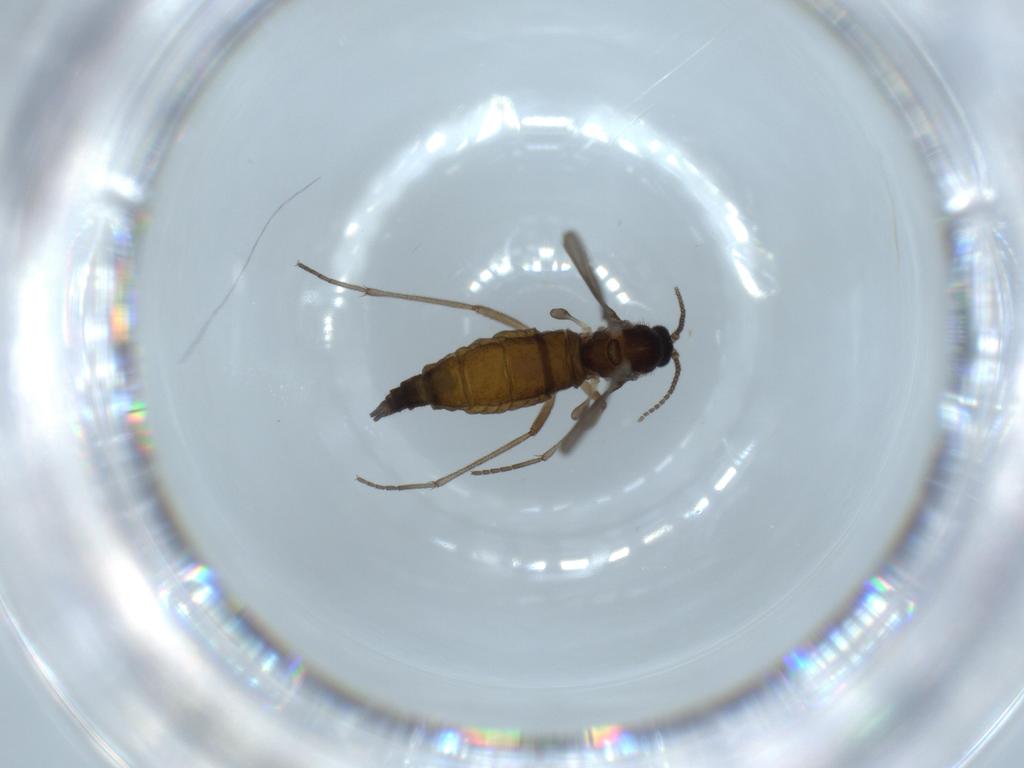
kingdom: Animalia
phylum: Arthropoda
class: Insecta
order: Diptera
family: Sciaridae
